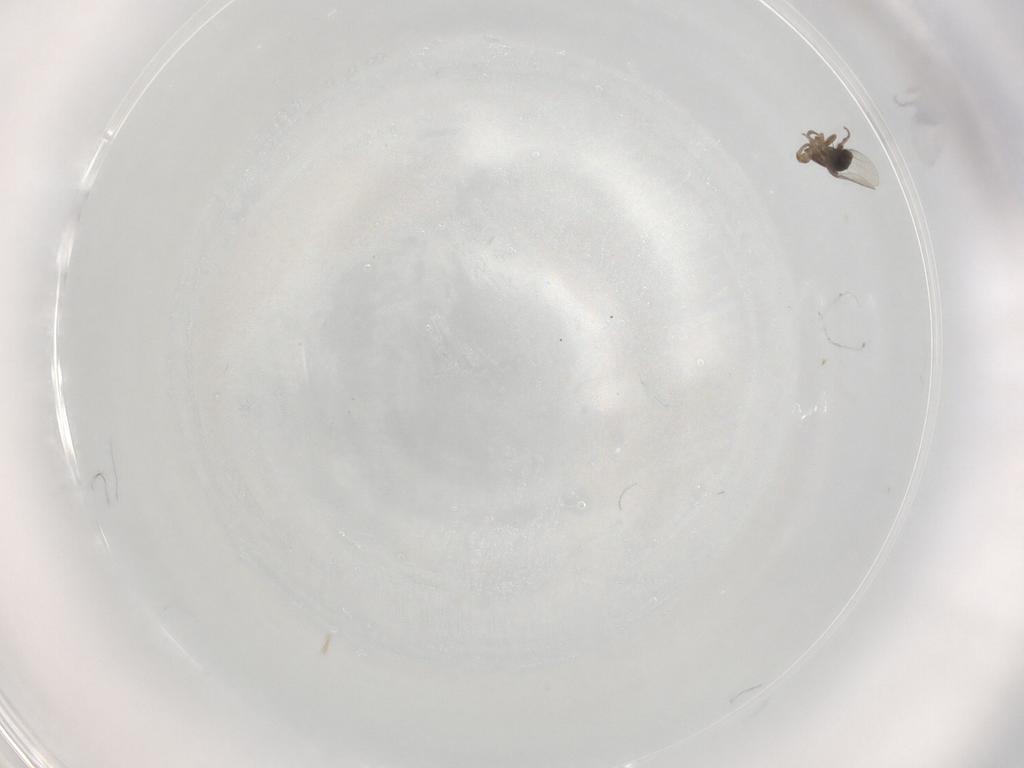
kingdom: Animalia
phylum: Arthropoda
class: Insecta
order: Diptera
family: Phoridae
